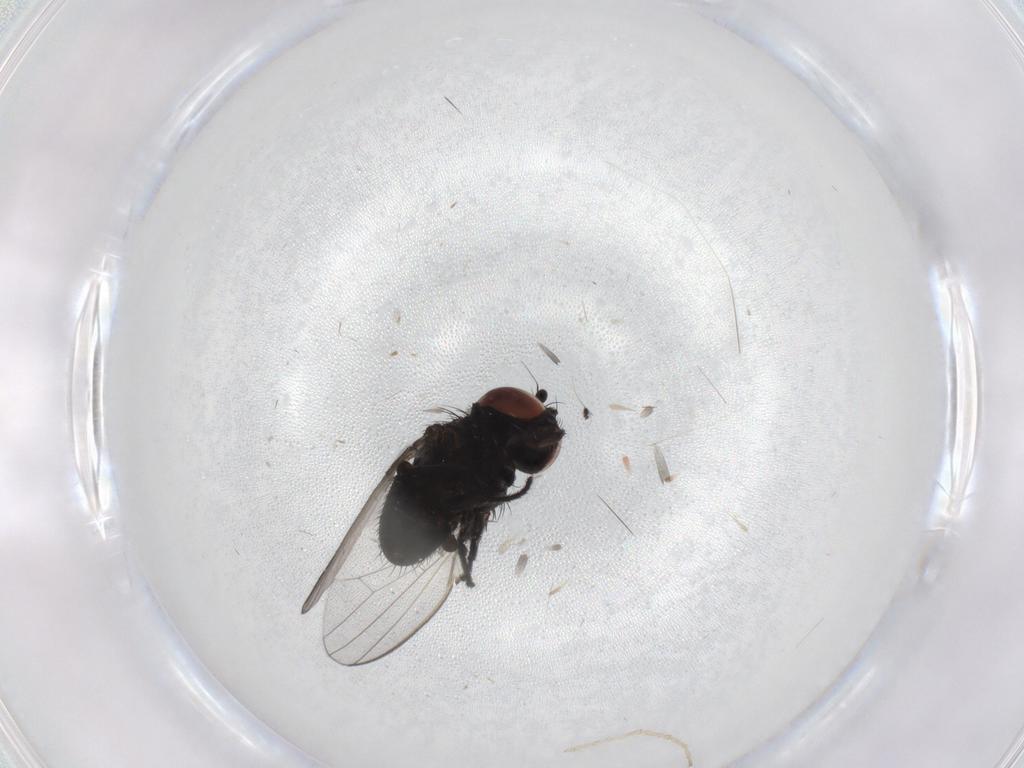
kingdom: Animalia
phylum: Arthropoda
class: Insecta
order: Diptera
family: Milichiidae
